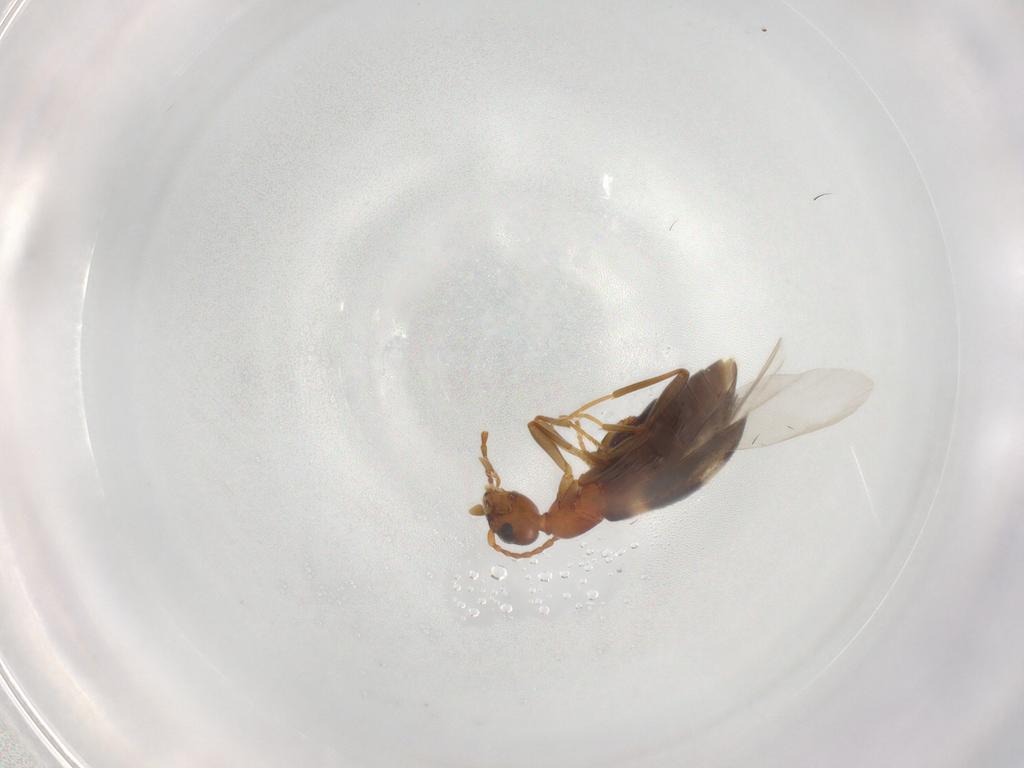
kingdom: Animalia
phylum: Arthropoda
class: Insecta
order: Coleoptera
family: Anthicidae
